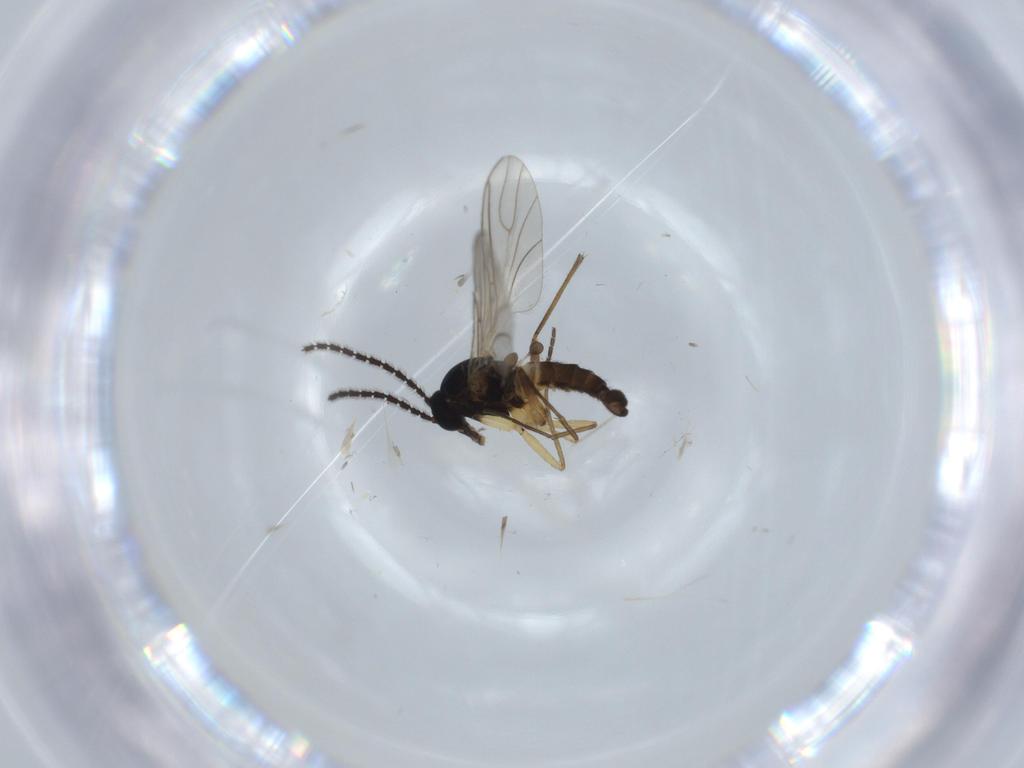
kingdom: Animalia
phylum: Arthropoda
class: Insecta
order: Diptera
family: Sciaridae
